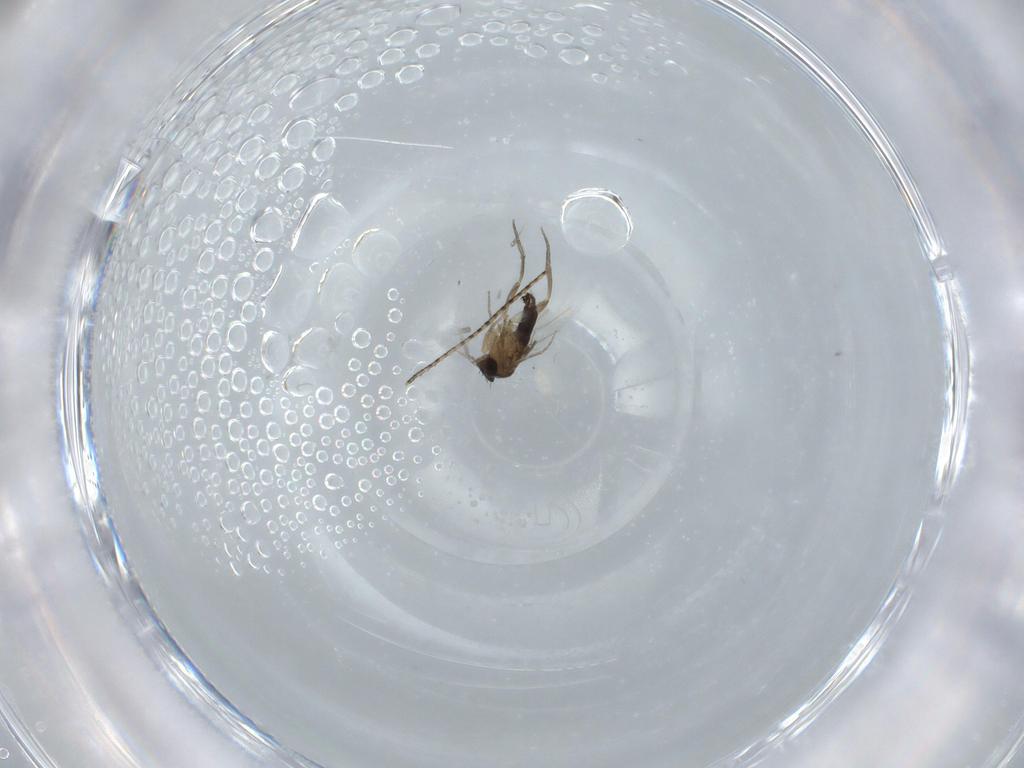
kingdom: Animalia
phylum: Arthropoda
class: Insecta
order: Diptera
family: Phoridae
